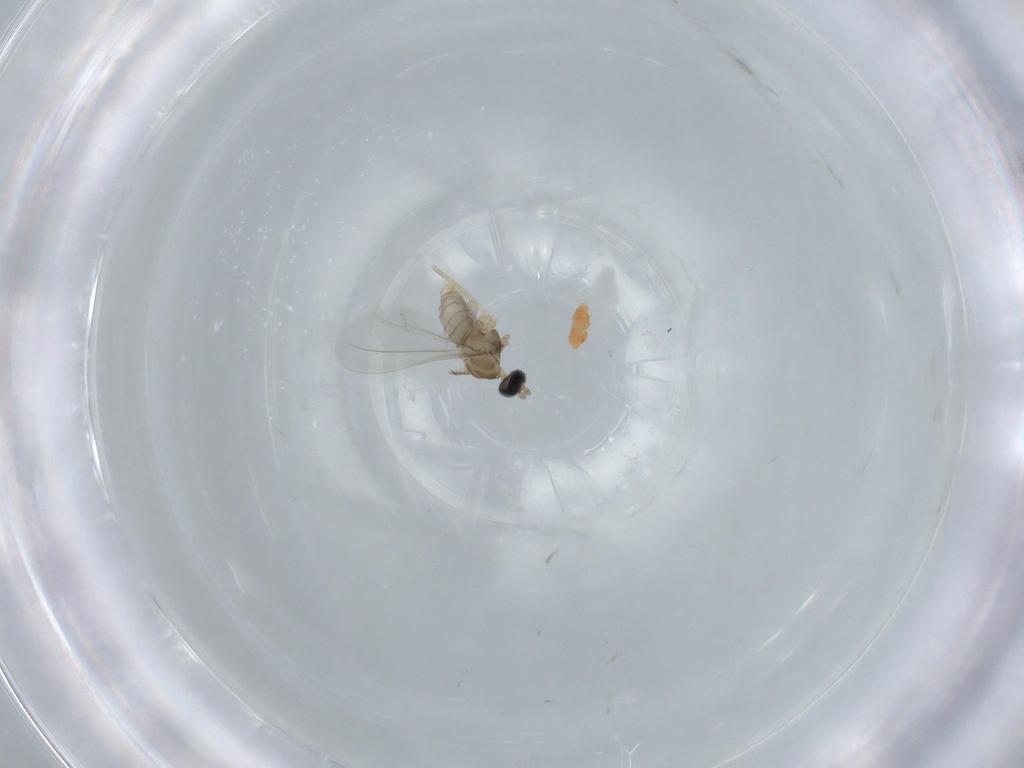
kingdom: Animalia
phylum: Arthropoda
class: Insecta
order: Diptera
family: Cecidomyiidae
